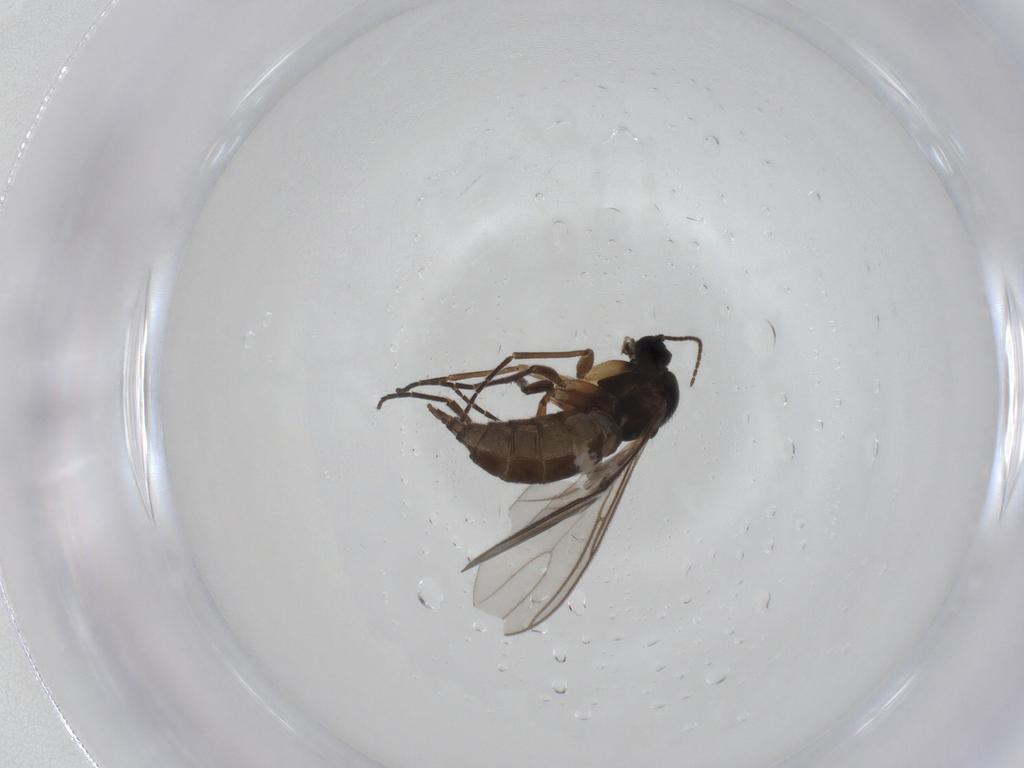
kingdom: Animalia
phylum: Arthropoda
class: Insecta
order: Diptera
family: Sciaridae
